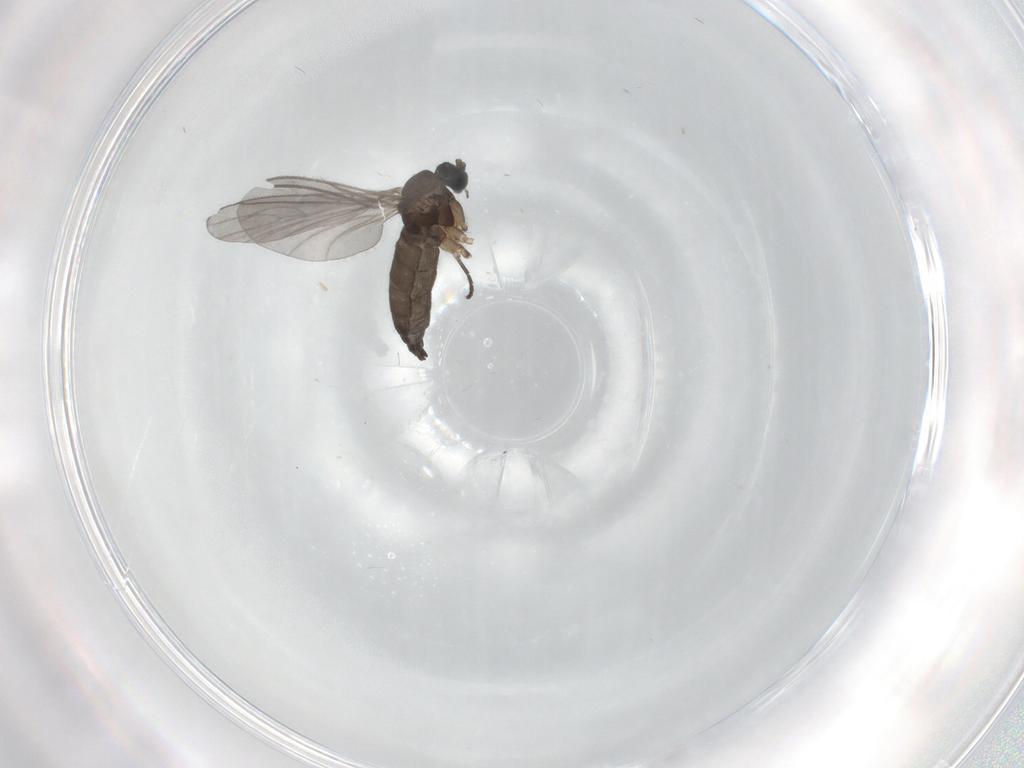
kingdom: Animalia
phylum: Arthropoda
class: Insecta
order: Diptera
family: Sciaridae
